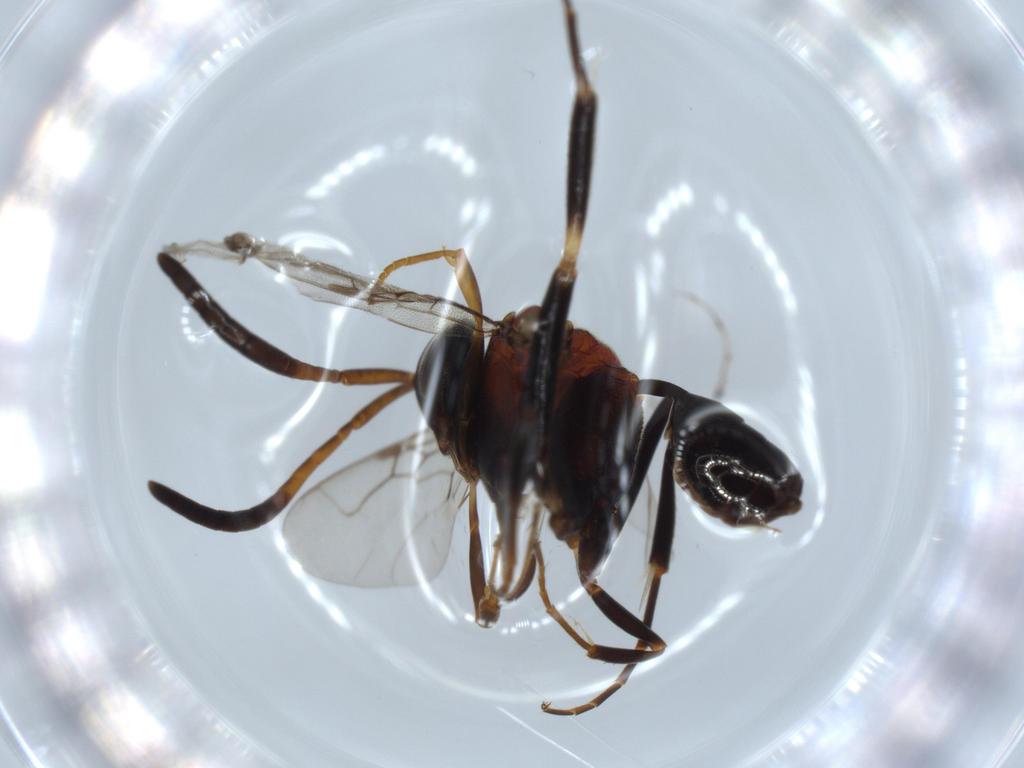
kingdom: Animalia
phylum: Arthropoda
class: Insecta
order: Hymenoptera
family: Evaniidae
